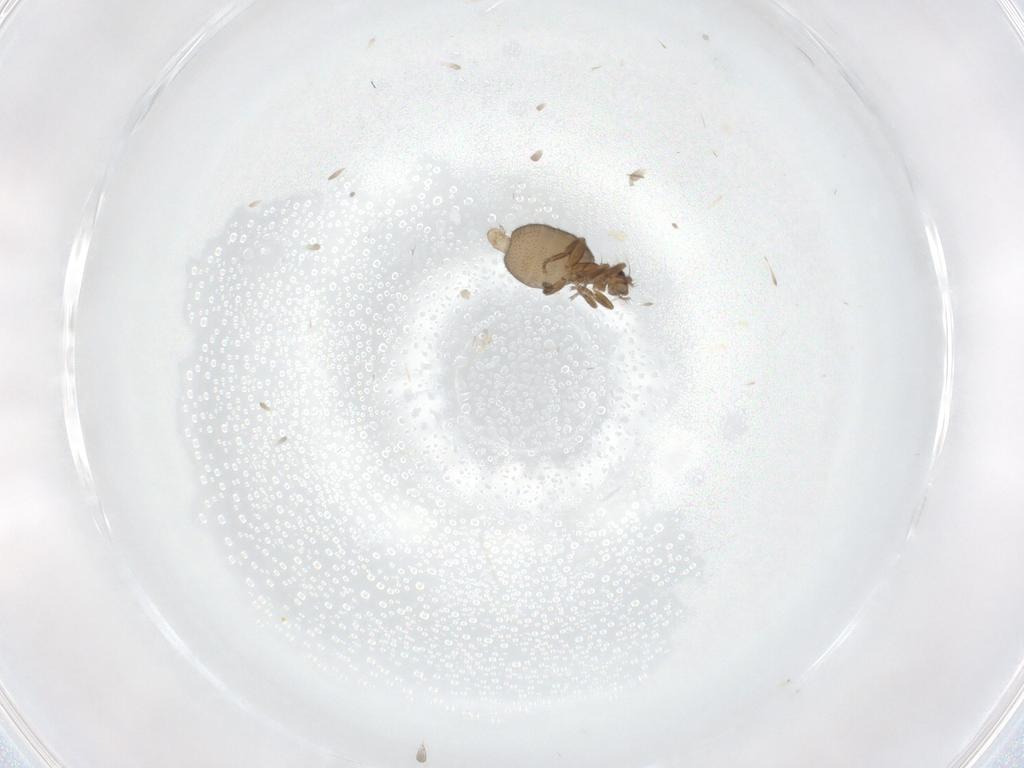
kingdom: Animalia
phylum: Arthropoda
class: Insecta
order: Diptera
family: Phoridae
